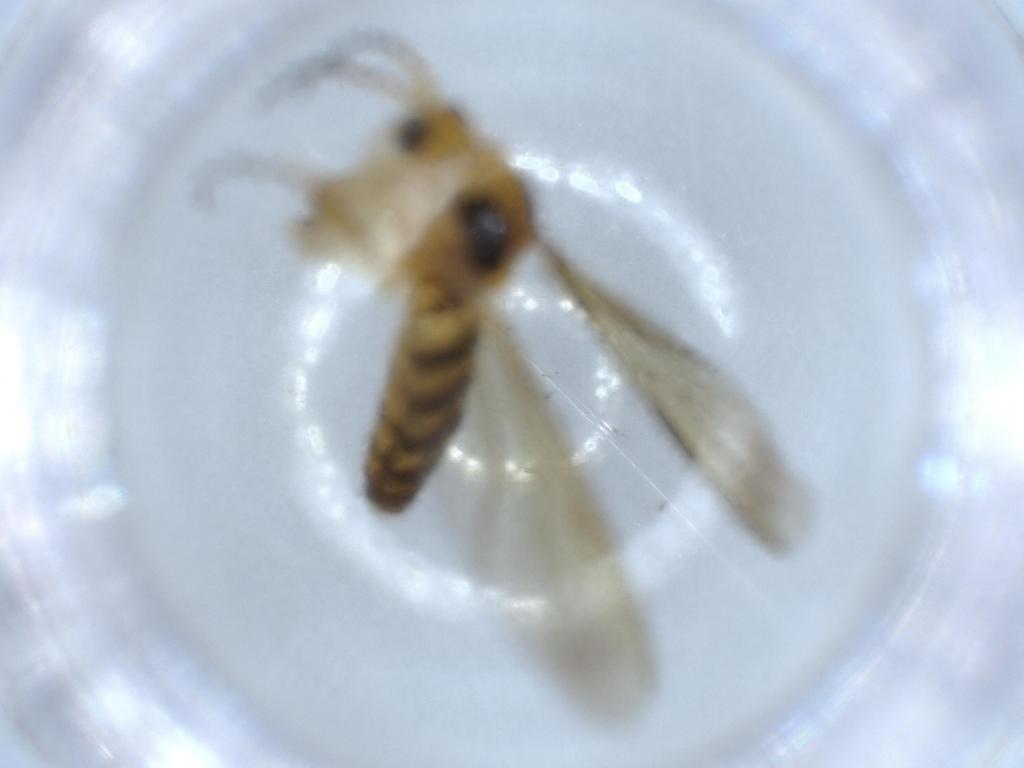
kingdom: Animalia
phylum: Arthropoda
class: Insecta
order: Diptera
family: Mycetophilidae
